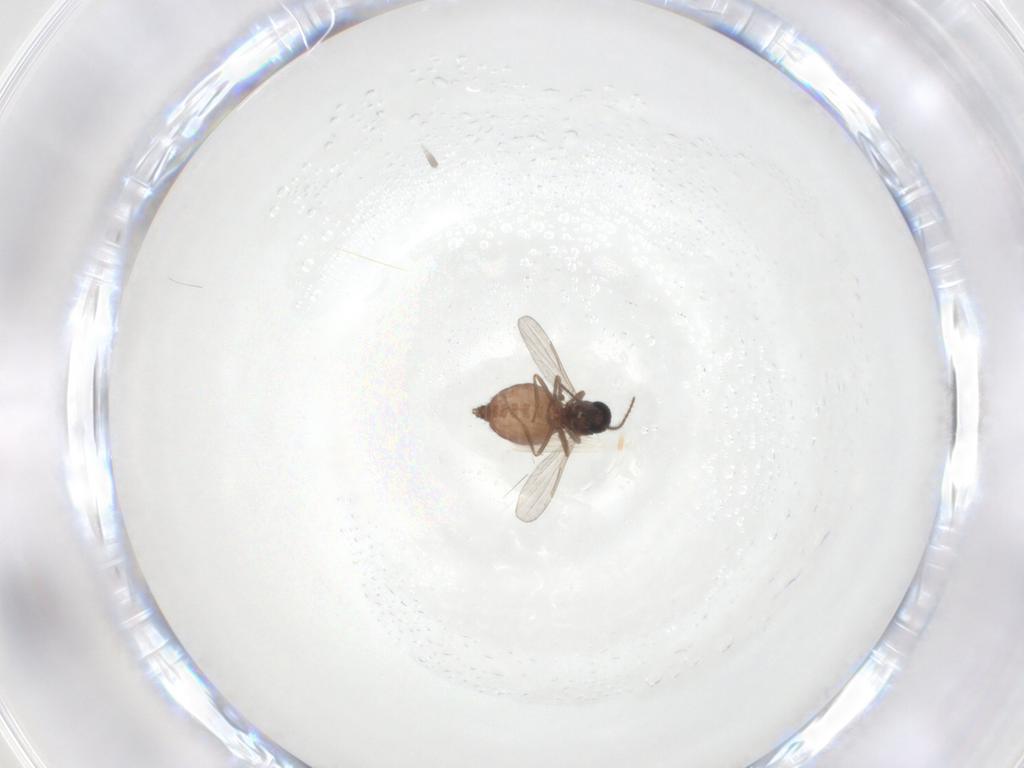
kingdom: Animalia
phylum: Arthropoda
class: Insecta
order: Diptera
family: Ceratopogonidae
